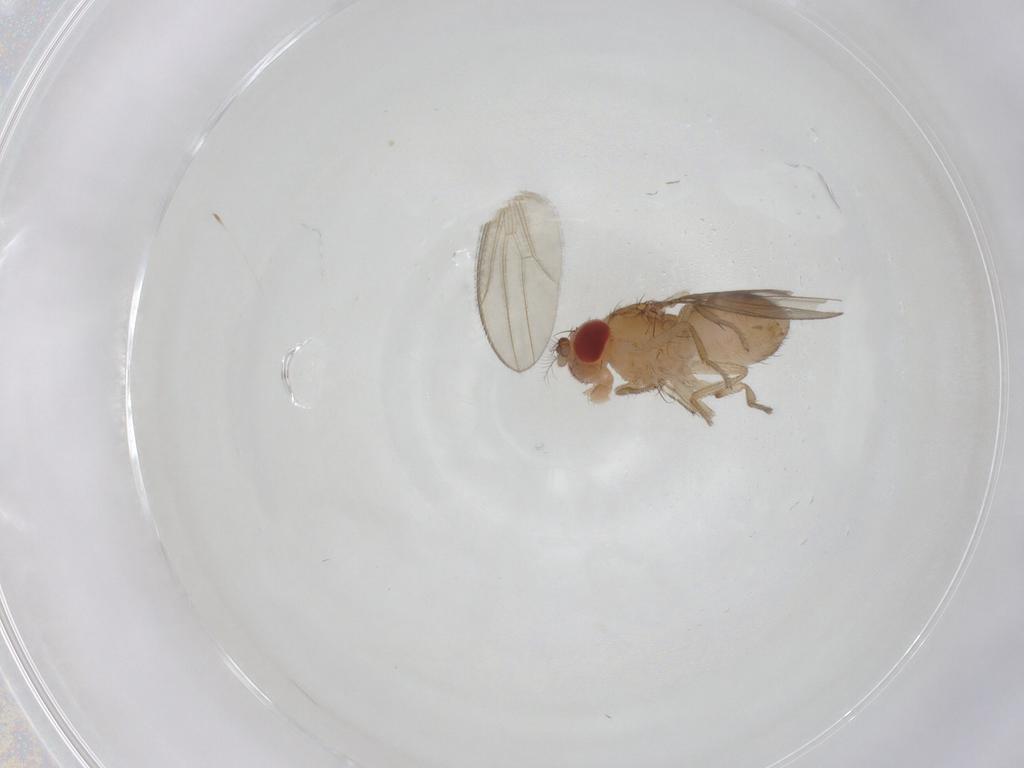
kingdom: Animalia
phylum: Arthropoda
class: Insecta
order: Diptera
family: Drosophilidae
